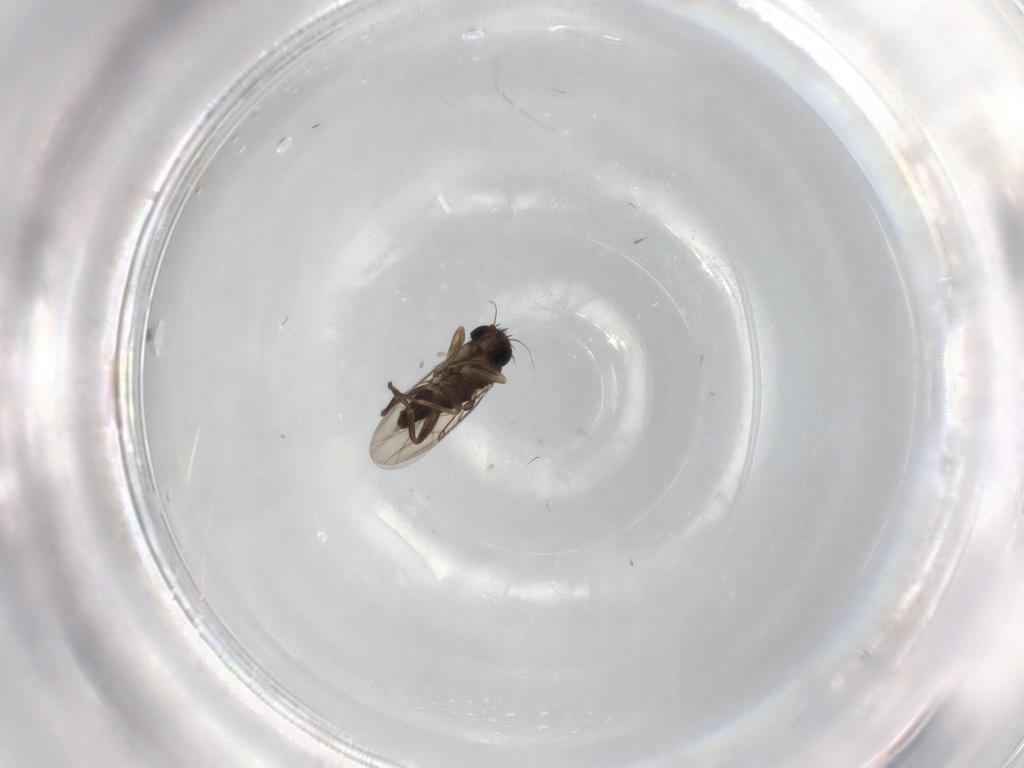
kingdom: Animalia
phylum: Arthropoda
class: Insecta
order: Diptera
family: Phoridae
